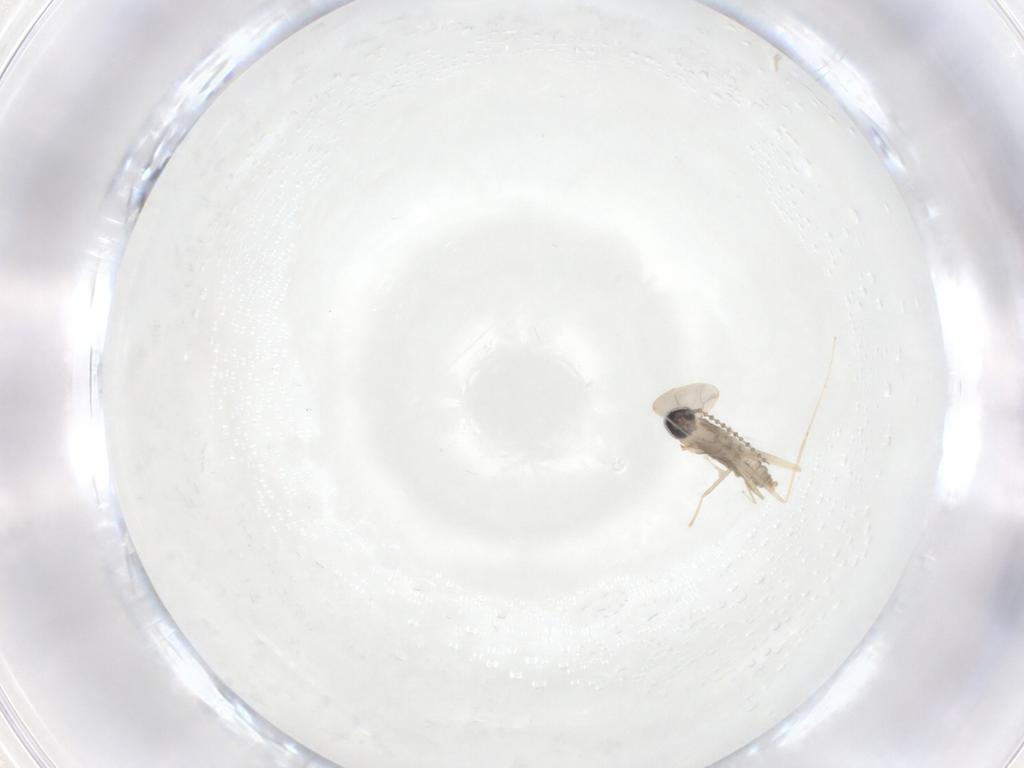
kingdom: Animalia
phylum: Arthropoda
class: Insecta
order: Diptera
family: Cecidomyiidae
